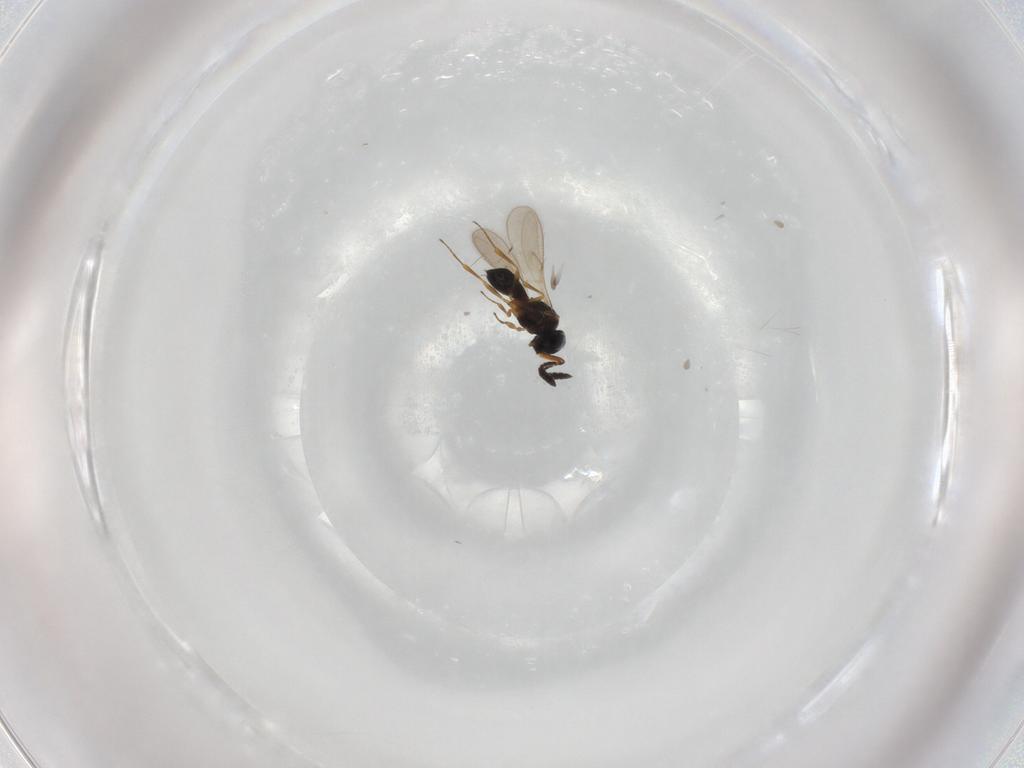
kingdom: Animalia
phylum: Arthropoda
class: Insecta
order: Hymenoptera
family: Scelionidae
